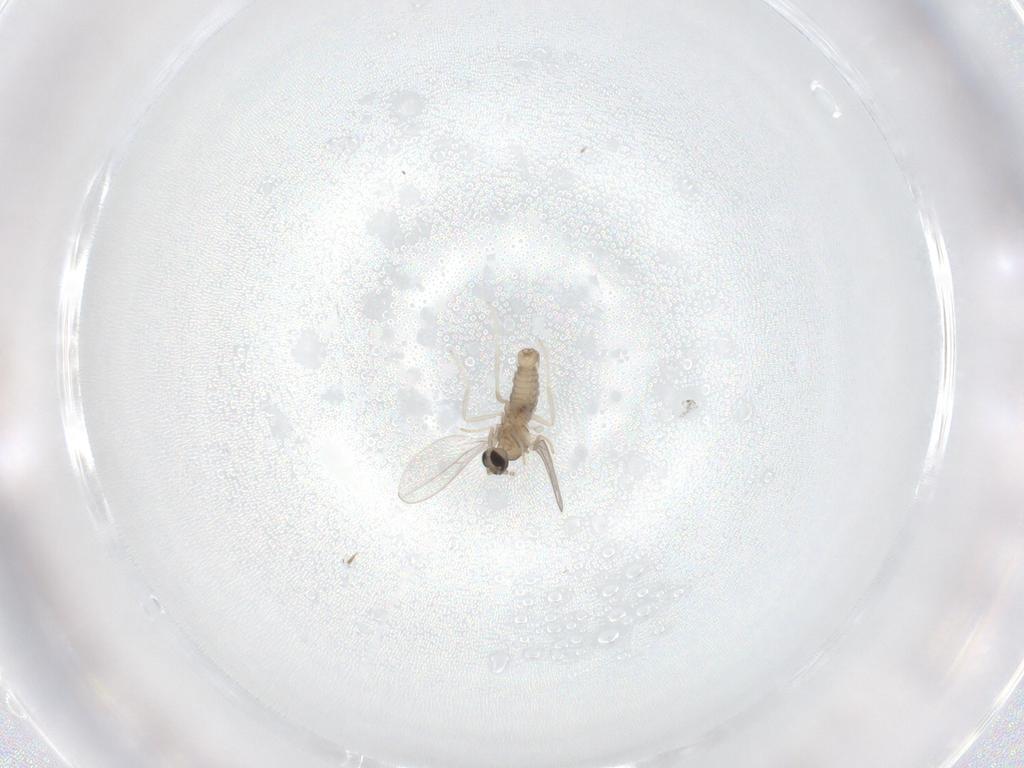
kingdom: Animalia
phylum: Arthropoda
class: Insecta
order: Diptera
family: Cecidomyiidae
